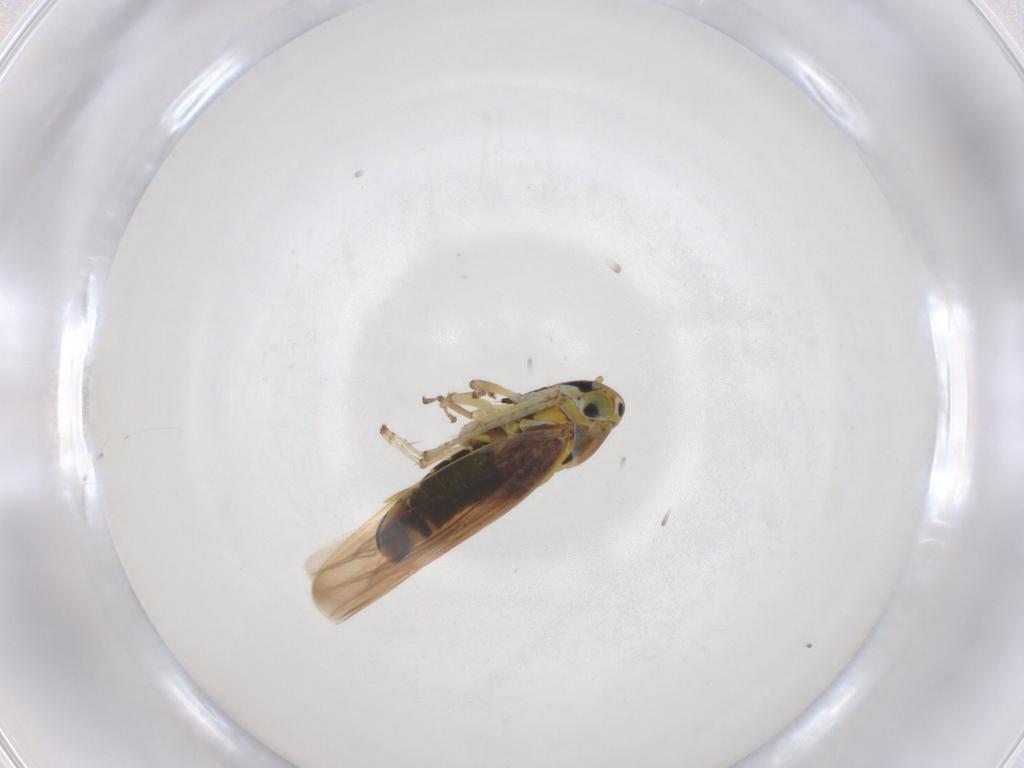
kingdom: Animalia
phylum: Arthropoda
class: Insecta
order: Hemiptera
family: Cicadellidae
